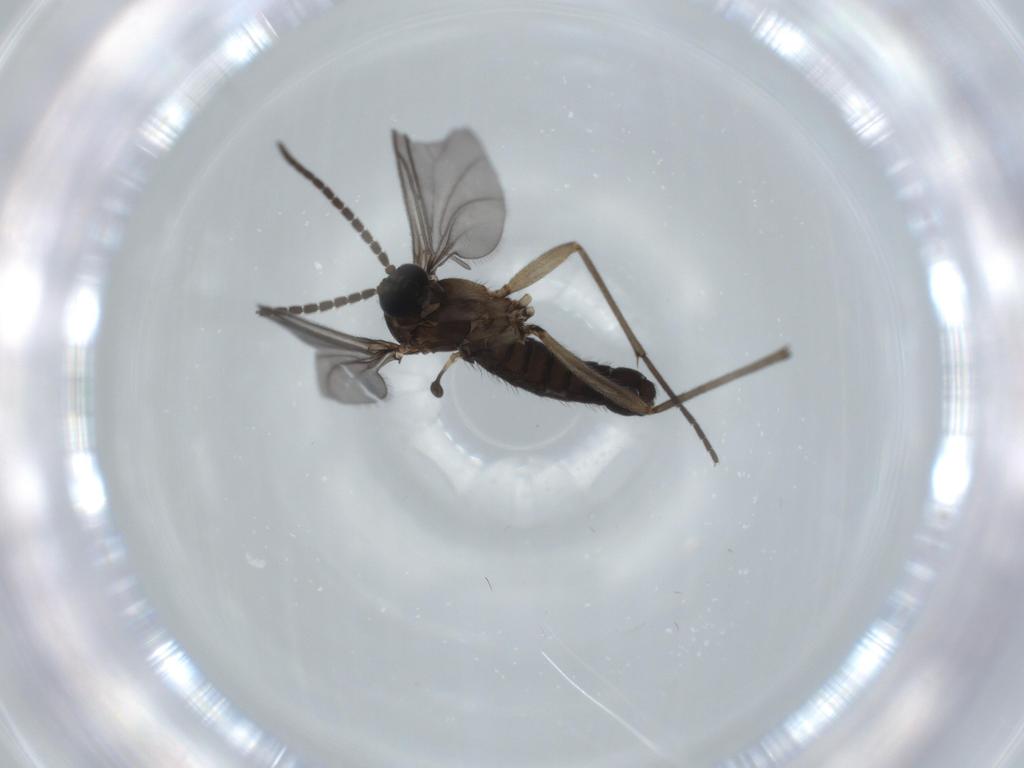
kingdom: Animalia
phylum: Arthropoda
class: Insecta
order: Diptera
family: Sciaridae
